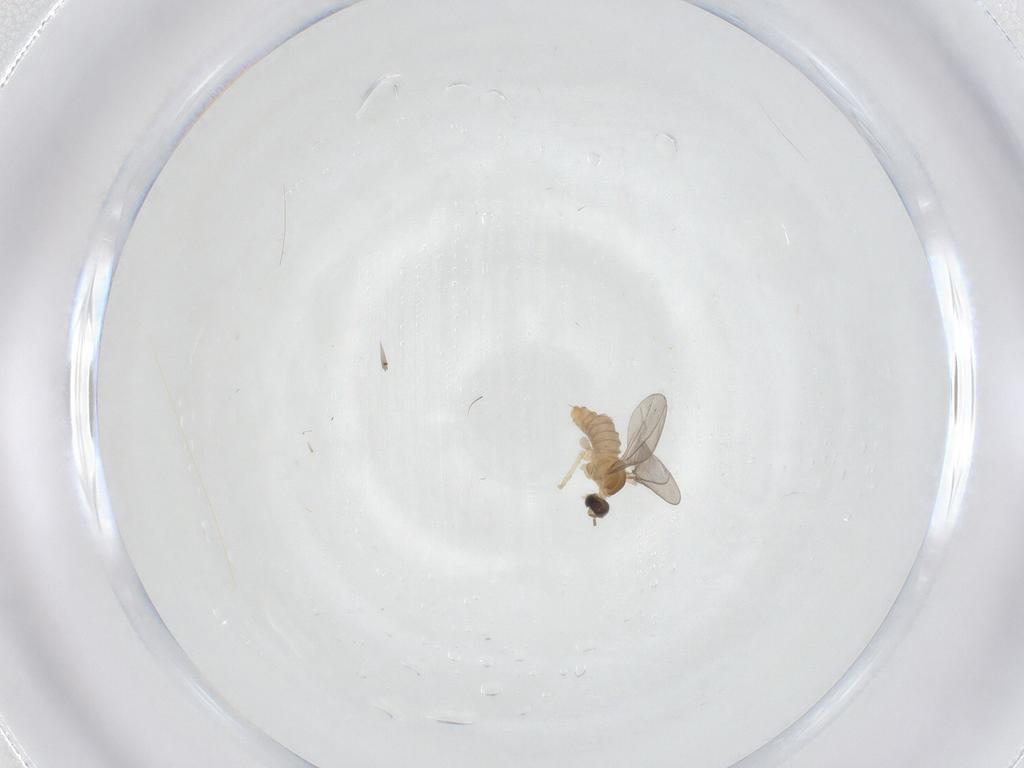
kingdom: Animalia
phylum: Arthropoda
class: Insecta
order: Diptera
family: Cecidomyiidae
